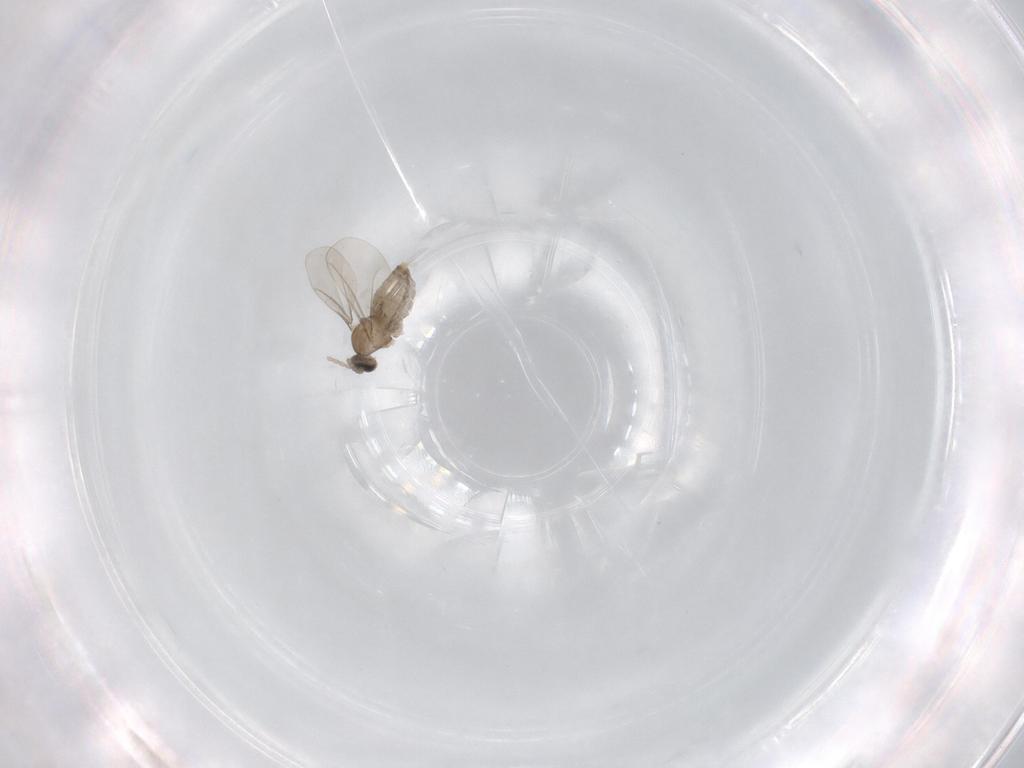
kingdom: Animalia
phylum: Arthropoda
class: Insecta
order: Diptera
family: Cecidomyiidae
